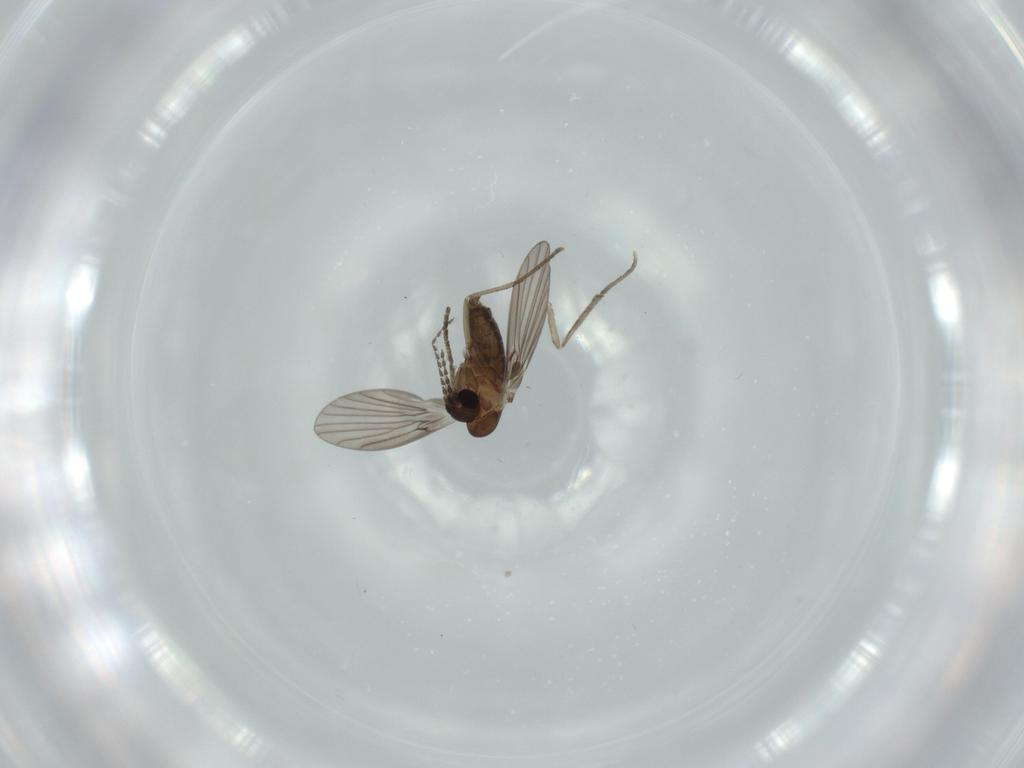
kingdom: Animalia
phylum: Arthropoda
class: Insecta
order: Diptera
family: Psychodidae
